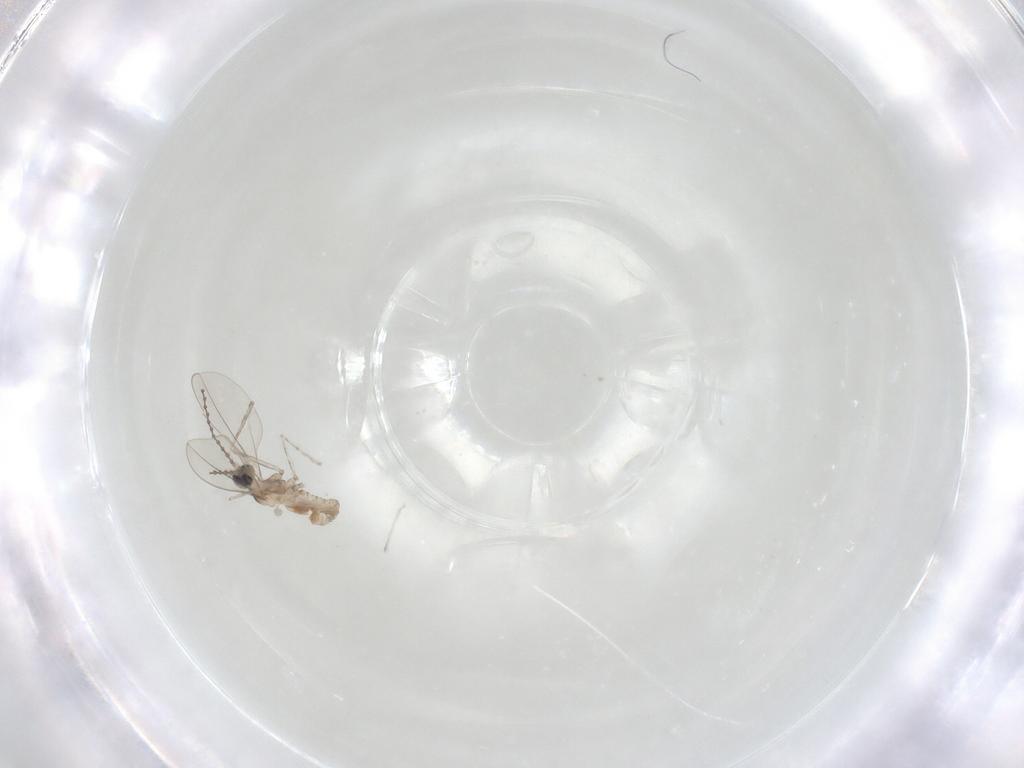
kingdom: Animalia
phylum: Arthropoda
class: Insecta
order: Diptera
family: Cecidomyiidae
